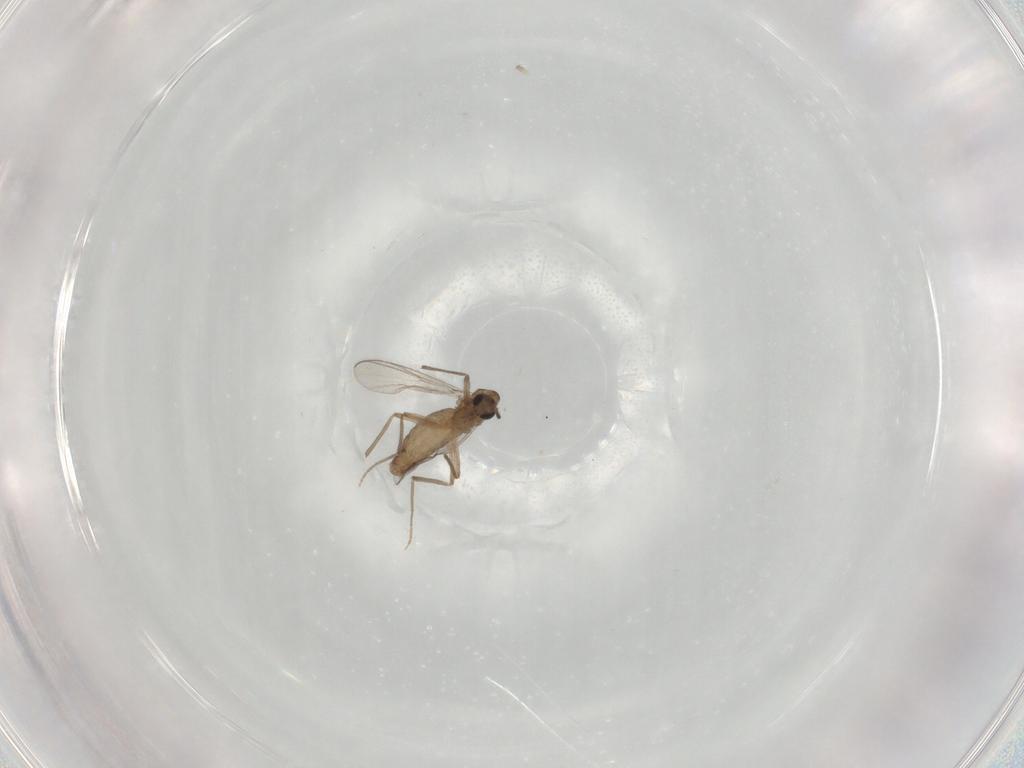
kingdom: Animalia
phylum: Arthropoda
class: Insecta
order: Diptera
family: Chironomidae
